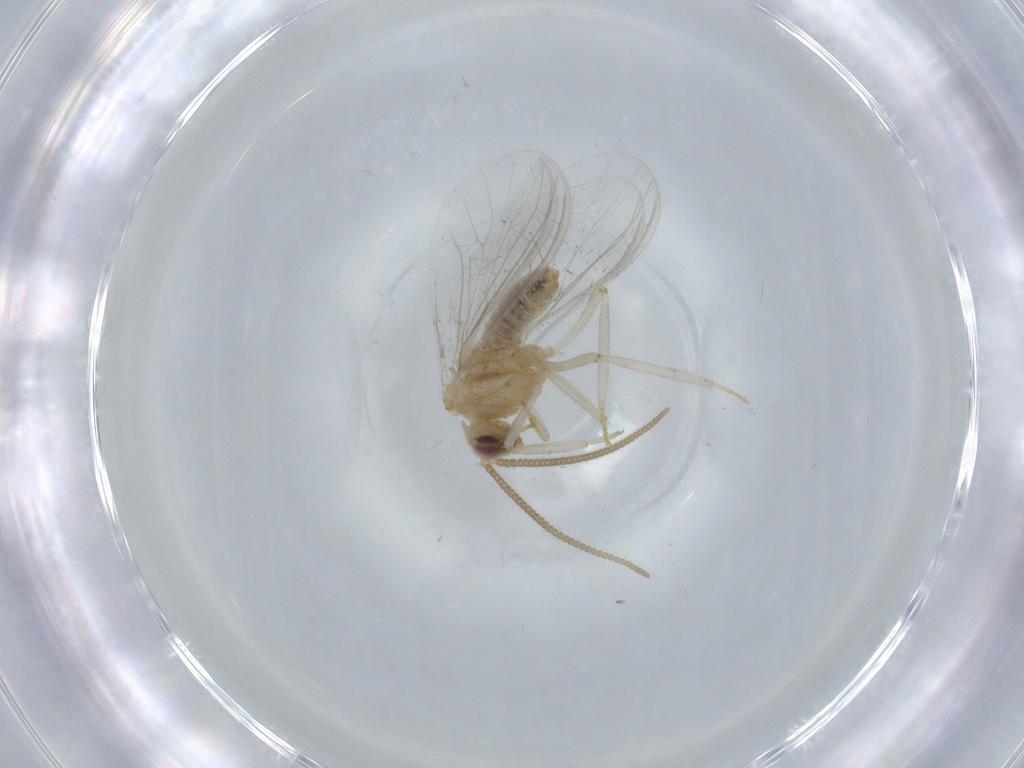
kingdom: Animalia
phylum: Arthropoda
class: Insecta
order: Neuroptera
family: Coniopterygidae
